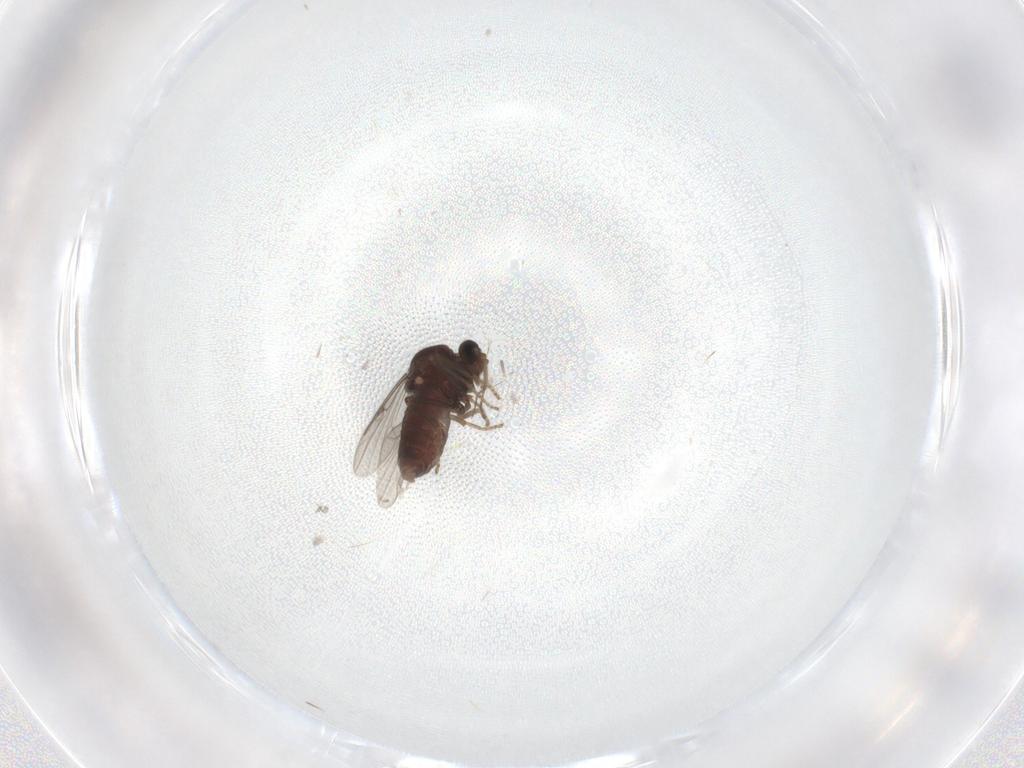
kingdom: Animalia
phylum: Arthropoda
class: Insecta
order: Diptera
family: Ceratopogonidae
